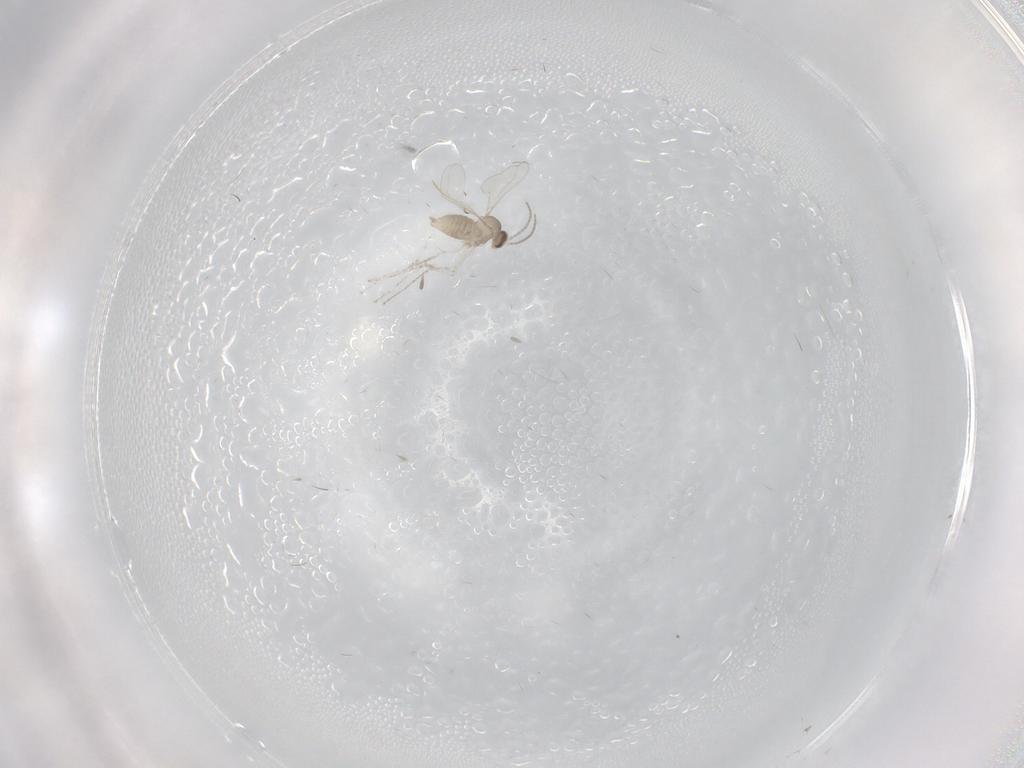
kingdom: Animalia
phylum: Arthropoda
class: Insecta
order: Diptera
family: Cecidomyiidae
